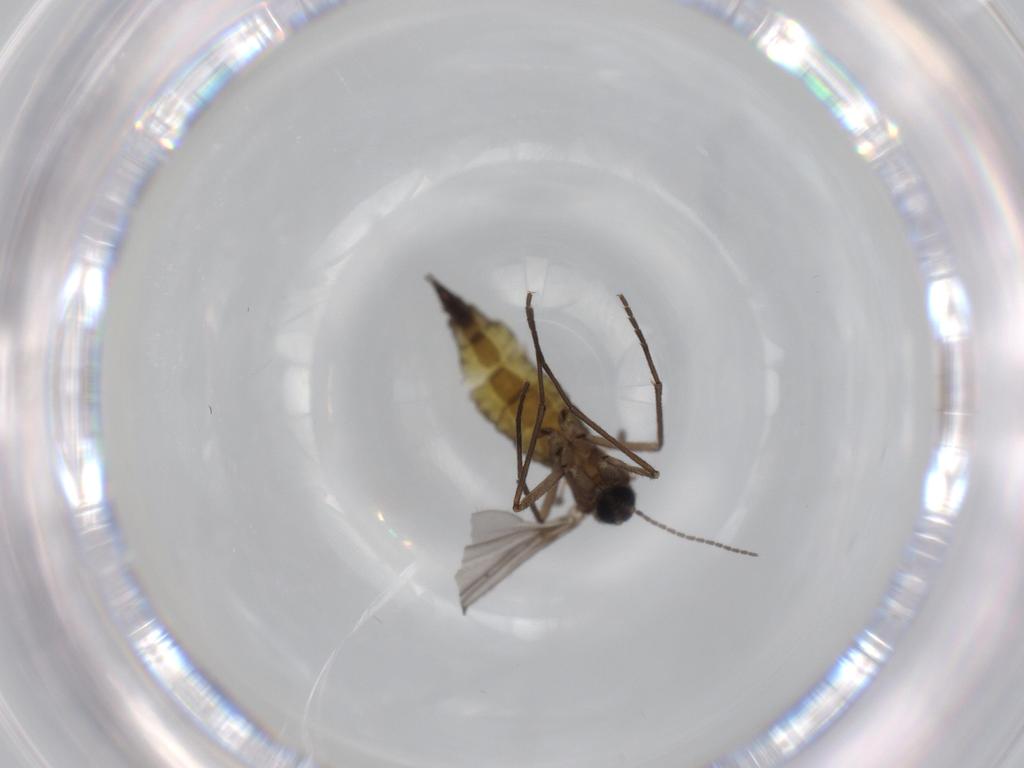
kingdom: Animalia
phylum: Arthropoda
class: Insecta
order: Diptera
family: Sciaridae
